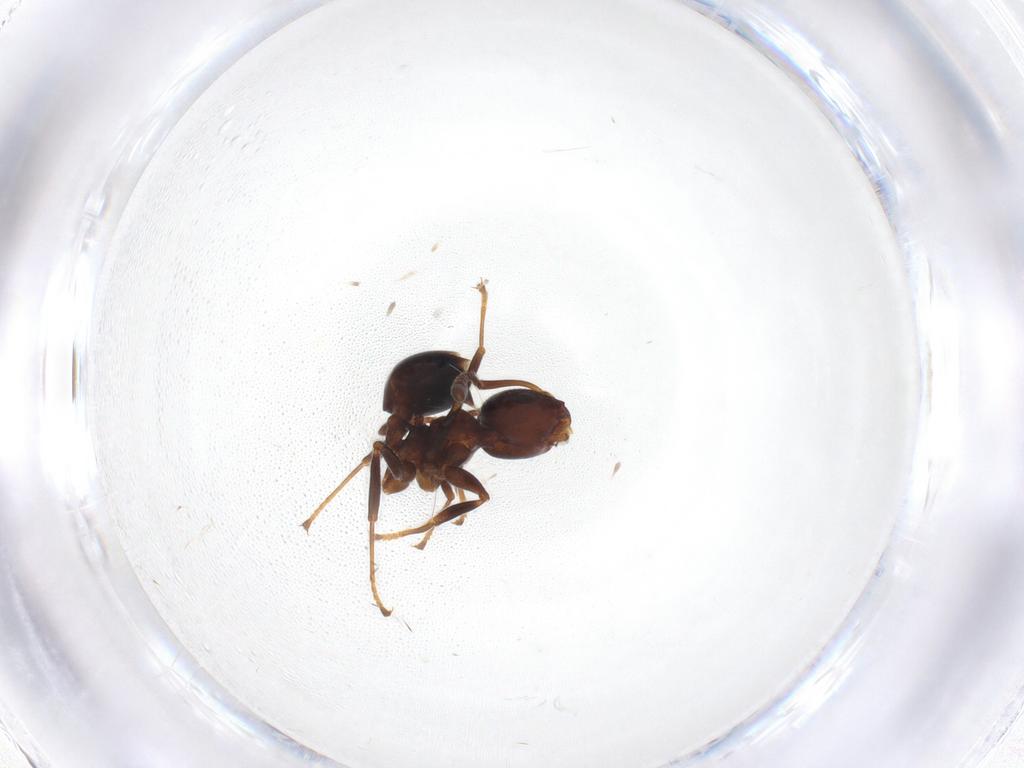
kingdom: Animalia
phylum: Arthropoda
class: Insecta
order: Hymenoptera
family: Formicidae
